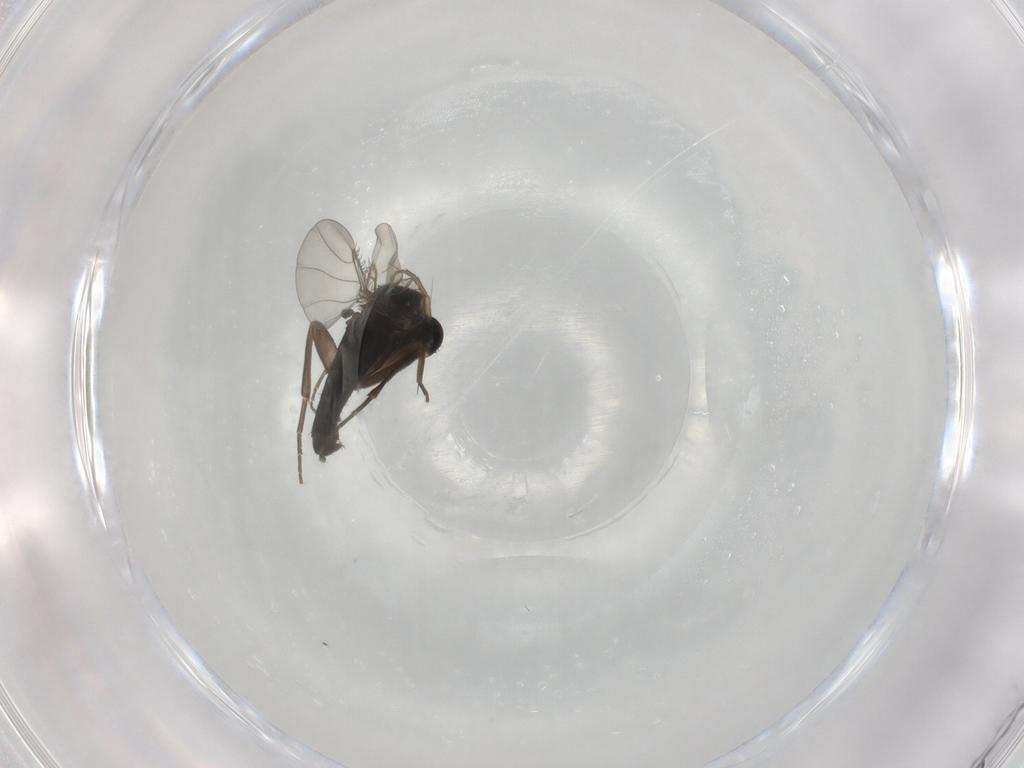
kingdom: Animalia
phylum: Arthropoda
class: Insecta
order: Diptera
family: Phoridae
